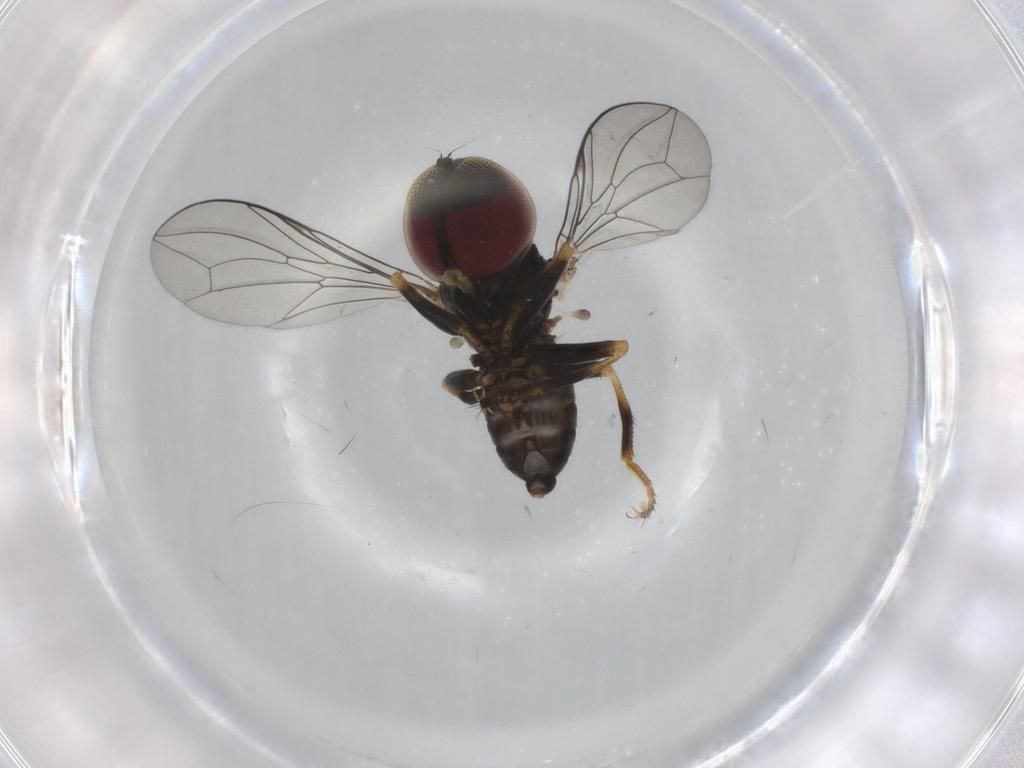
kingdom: Animalia
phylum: Arthropoda
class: Insecta
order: Diptera
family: Pipunculidae
